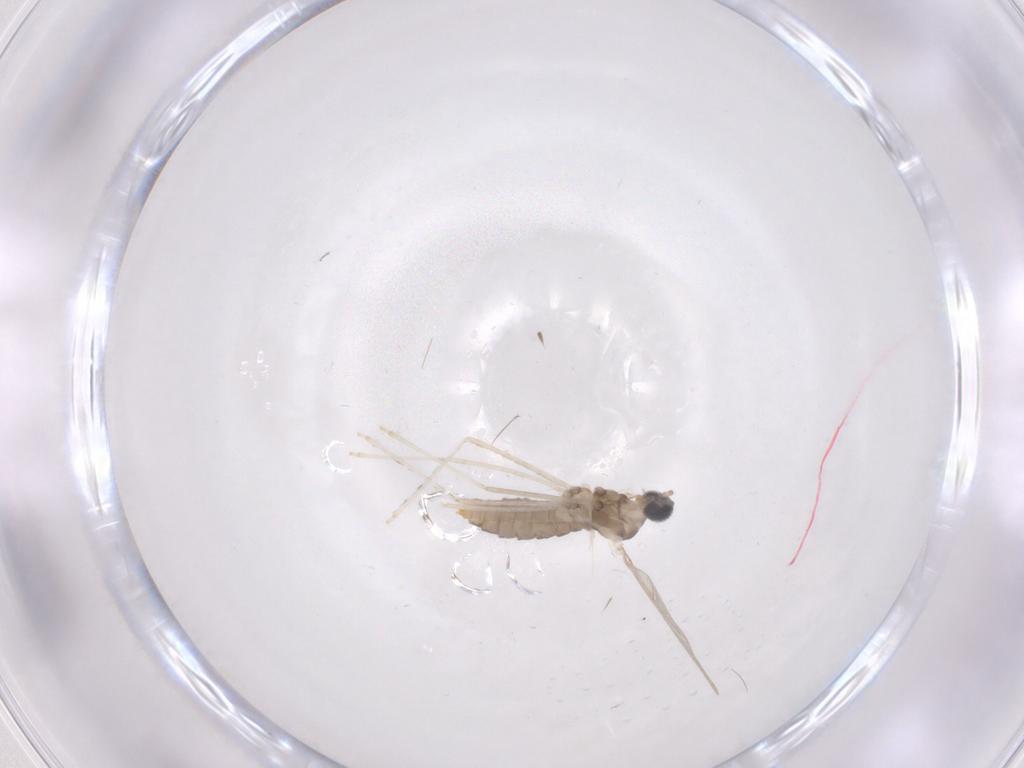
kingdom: Animalia
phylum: Arthropoda
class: Insecta
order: Diptera
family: Cecidomyiidae
